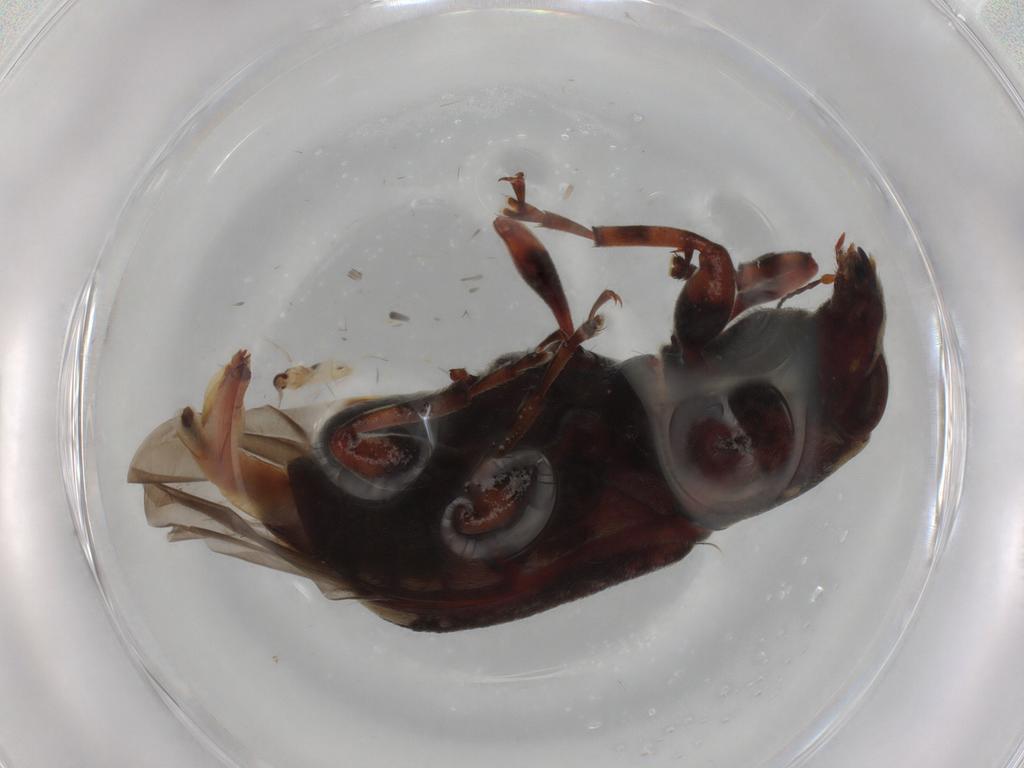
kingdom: Animalia
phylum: Arthropoda
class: Insecta
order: Coleoptera
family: Anthribidae
